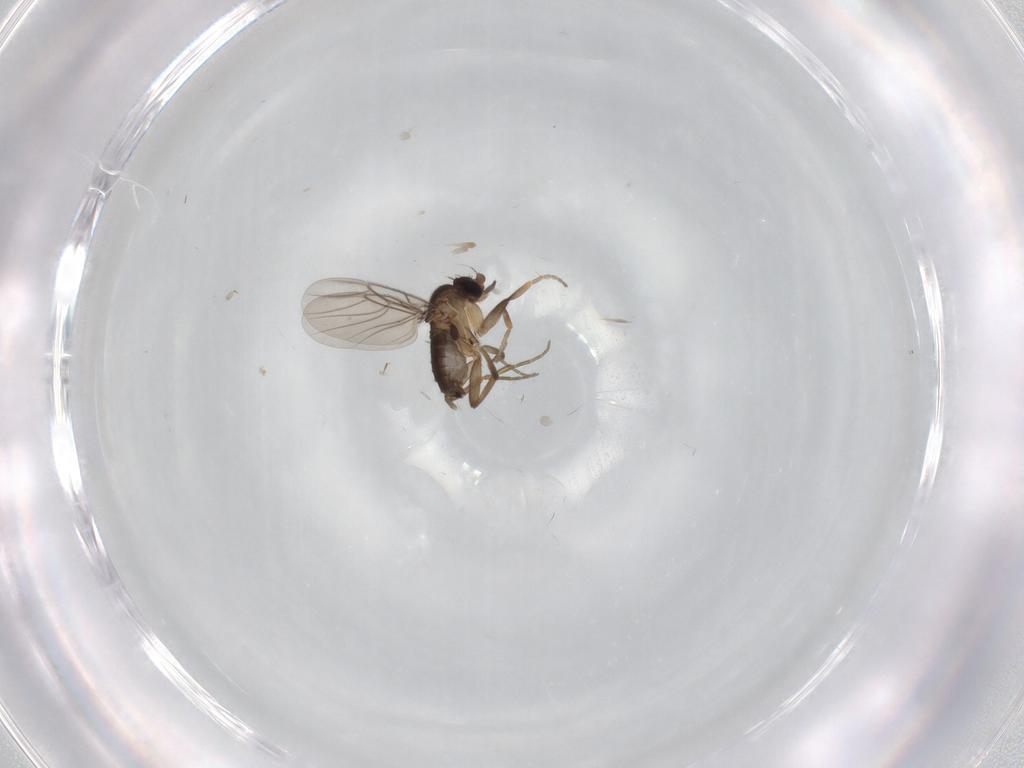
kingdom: Animalia
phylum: Arthropoda
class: Insecta
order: Diptera
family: Phoridae
